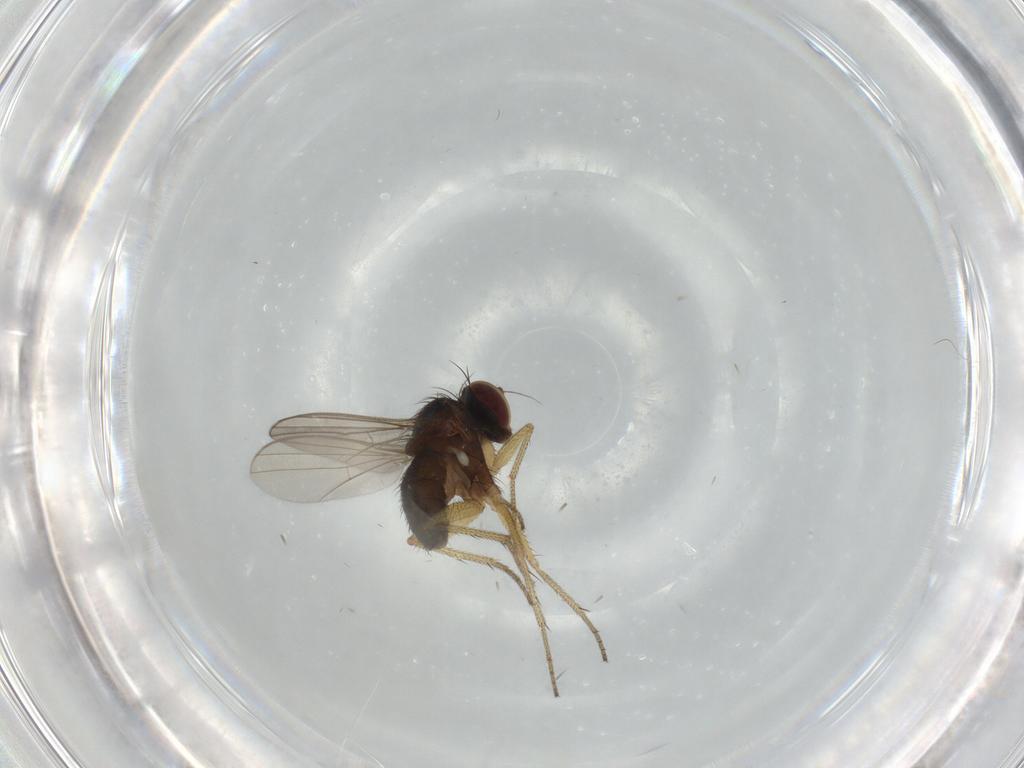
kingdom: Animalia
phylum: Arthropoda
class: Insecta
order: Diptera
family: Dolichopodidae
